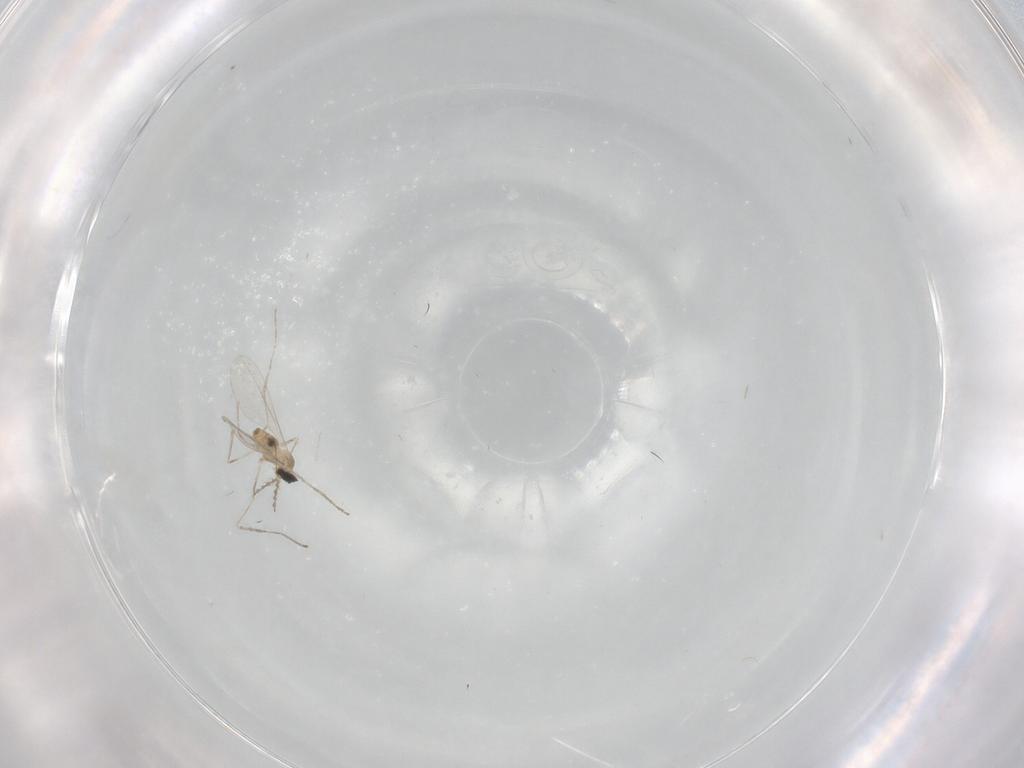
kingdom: Animalia
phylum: Arthropoda
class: Insecta
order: Diptera
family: Cecidomyiidae
